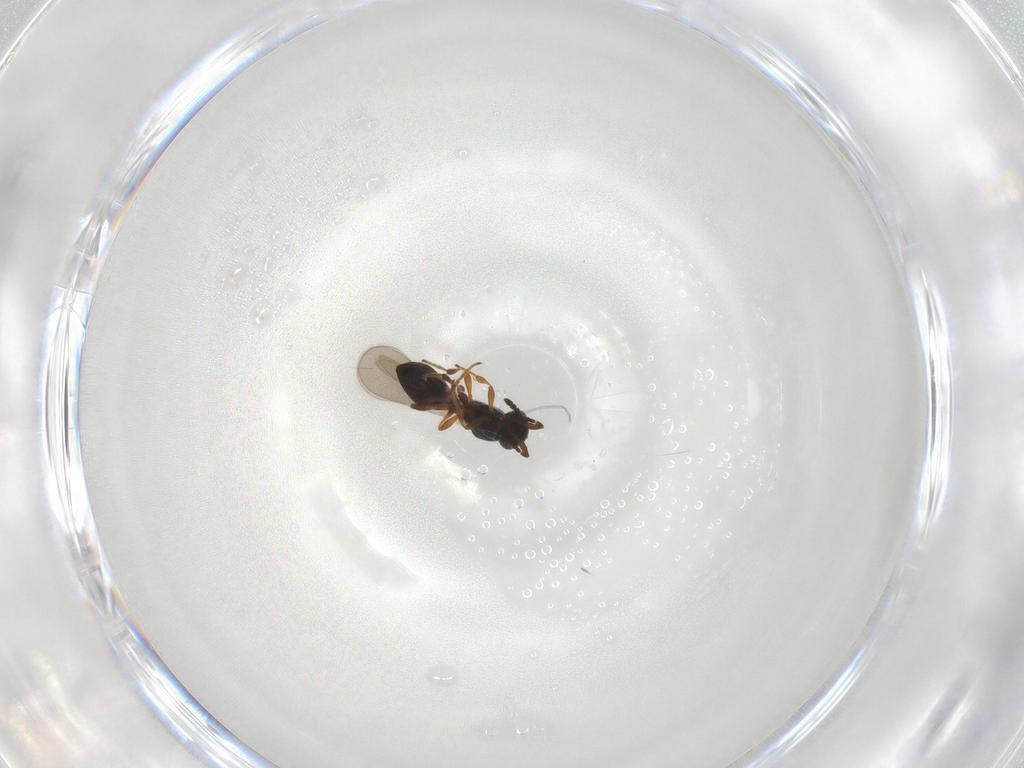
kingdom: Animalia
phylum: Arthropoda
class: Insecta
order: Hymenoptera
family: Platygastridae
